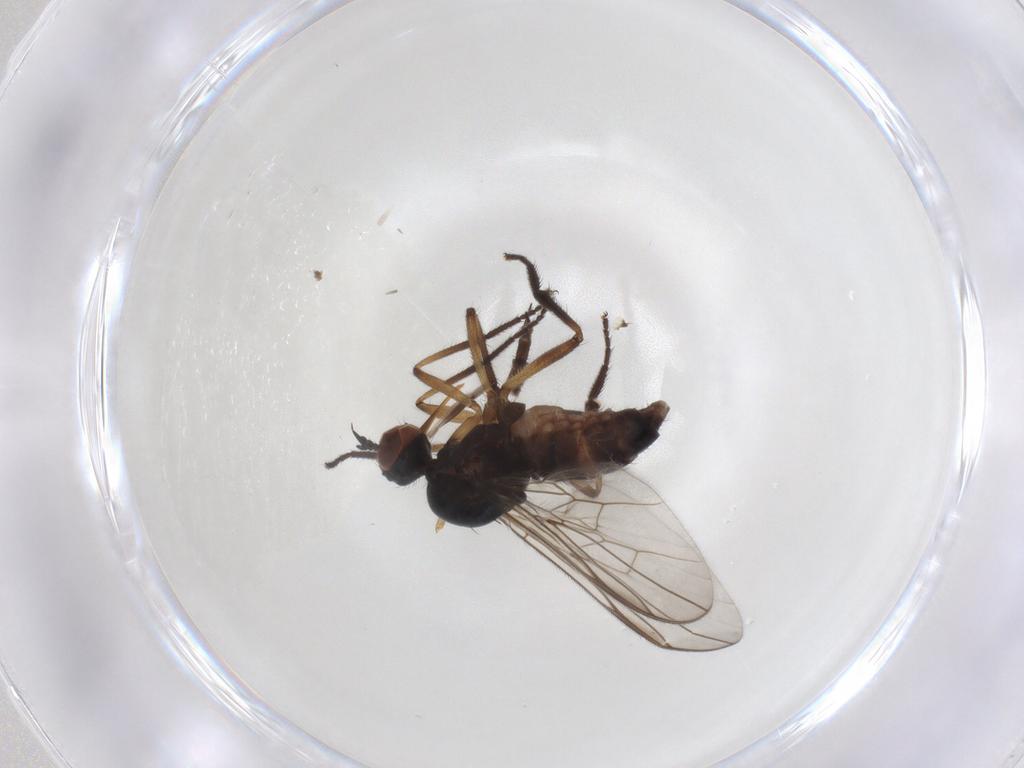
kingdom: Animalia
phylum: Arthropoda
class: Insecta
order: Diptera
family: Empididae
